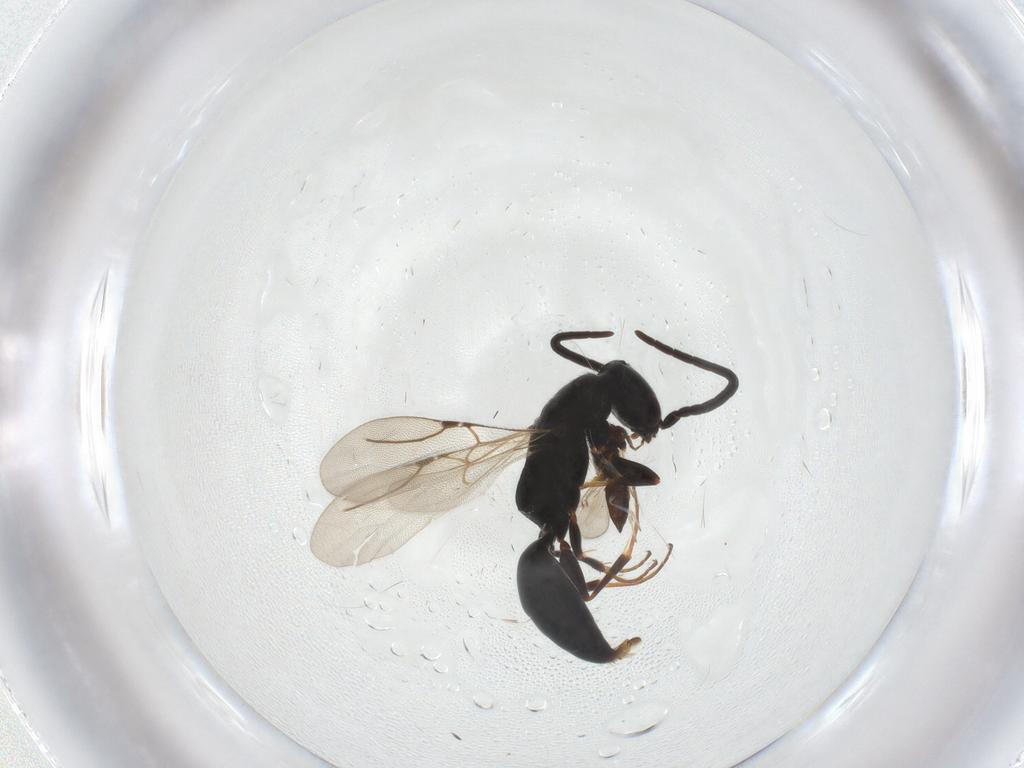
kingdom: Animalia
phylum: Arthropoda
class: Insecta
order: Hymenoptera
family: Bethylidae
